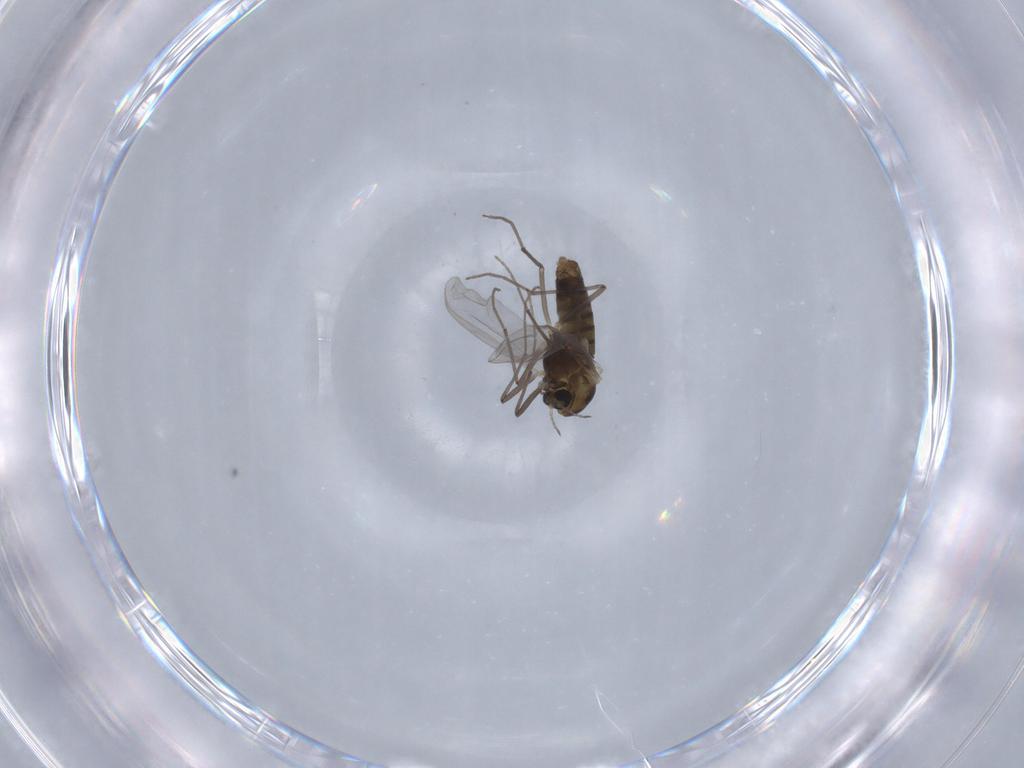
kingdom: Animalia
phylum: Arthropoda
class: Insecta
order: Diptera
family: Chironomidae
